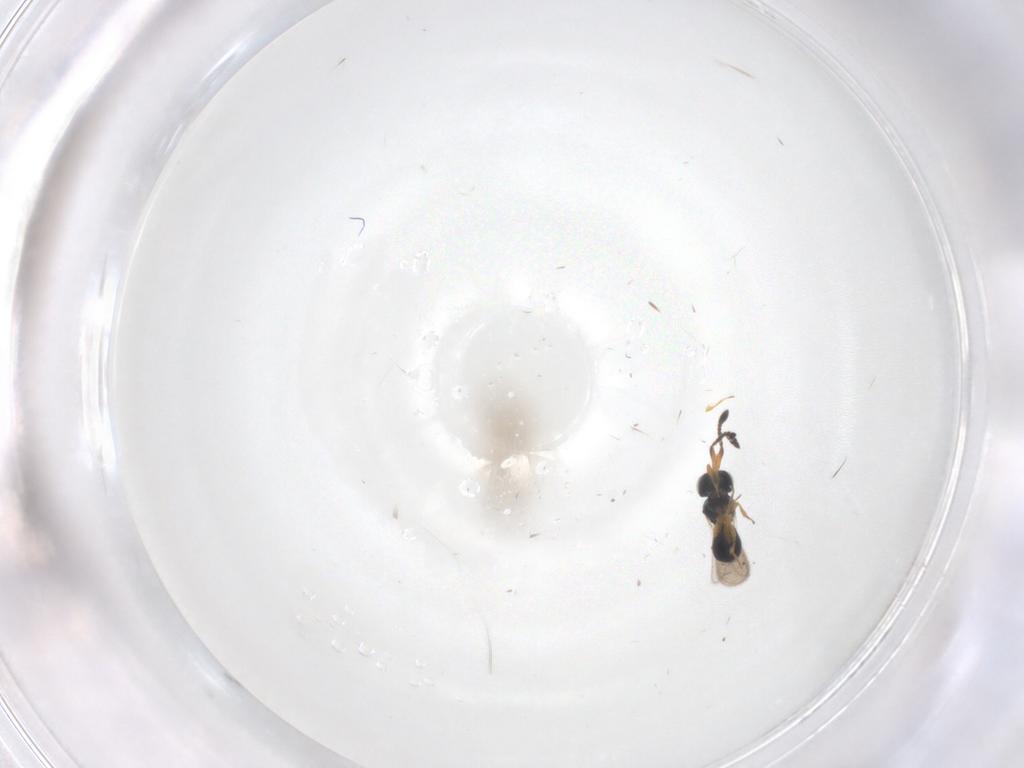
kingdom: Animalia
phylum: Arthropoda
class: Insecta
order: Hymenoptera
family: Scelionidae
